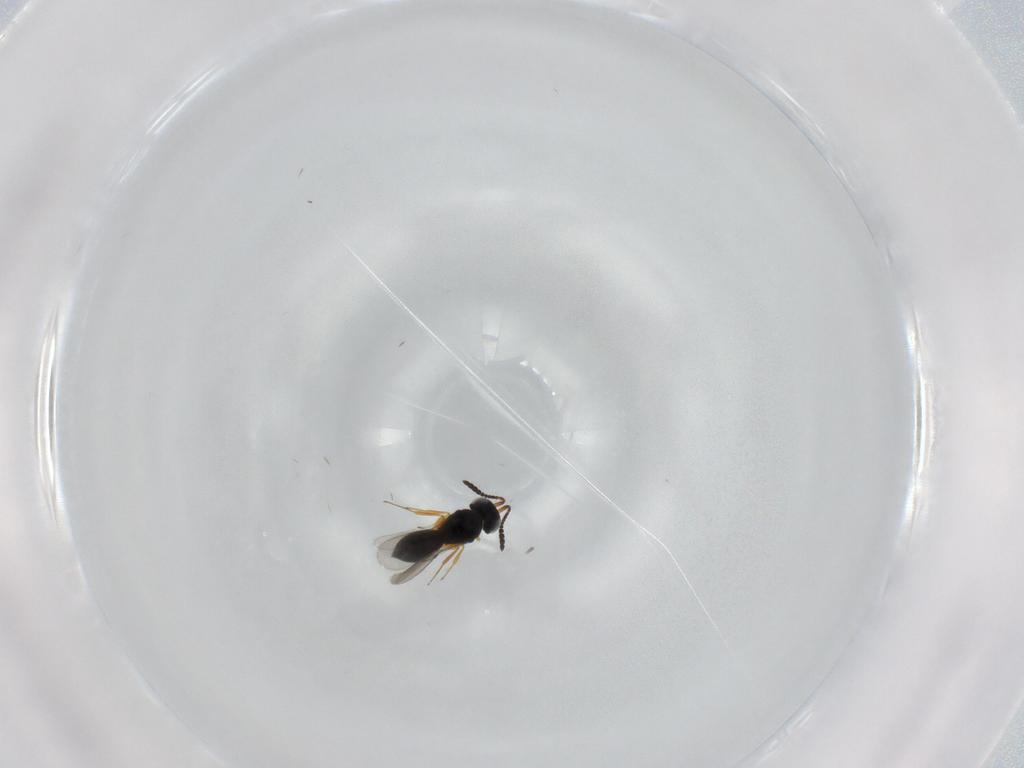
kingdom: Animalia
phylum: Arthropoda
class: Insecta
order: Hymenoptera
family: Scelionidae
